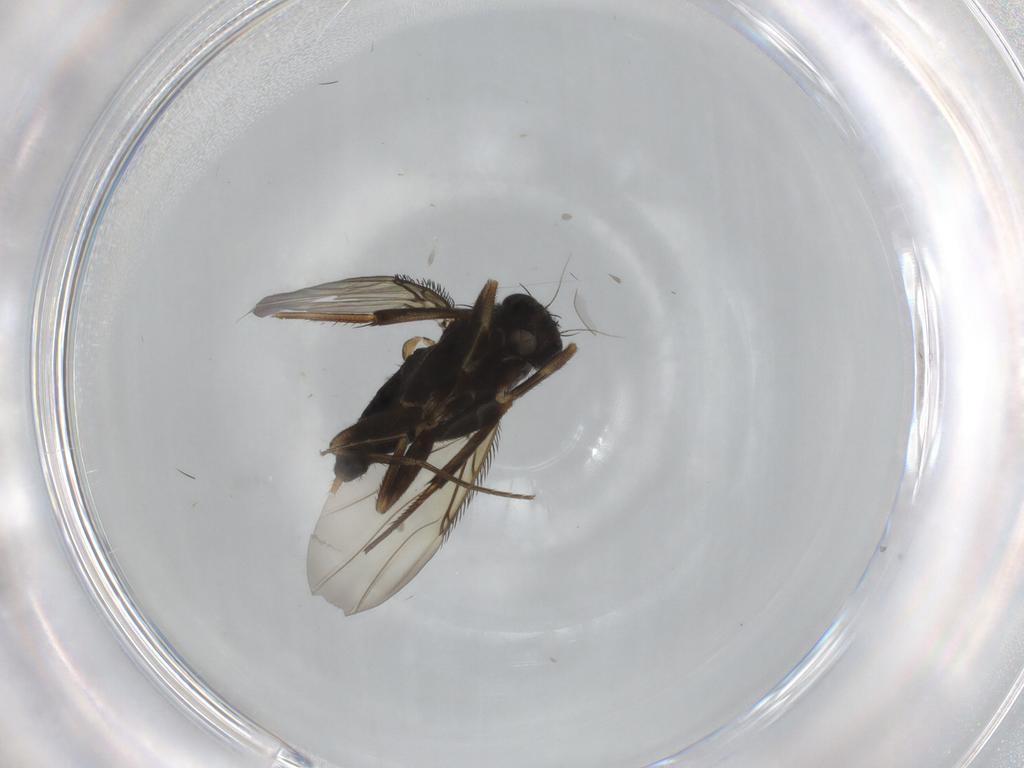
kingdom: Animalia
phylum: Arthropoda
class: Insecta
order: Diptera
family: Phoridae
